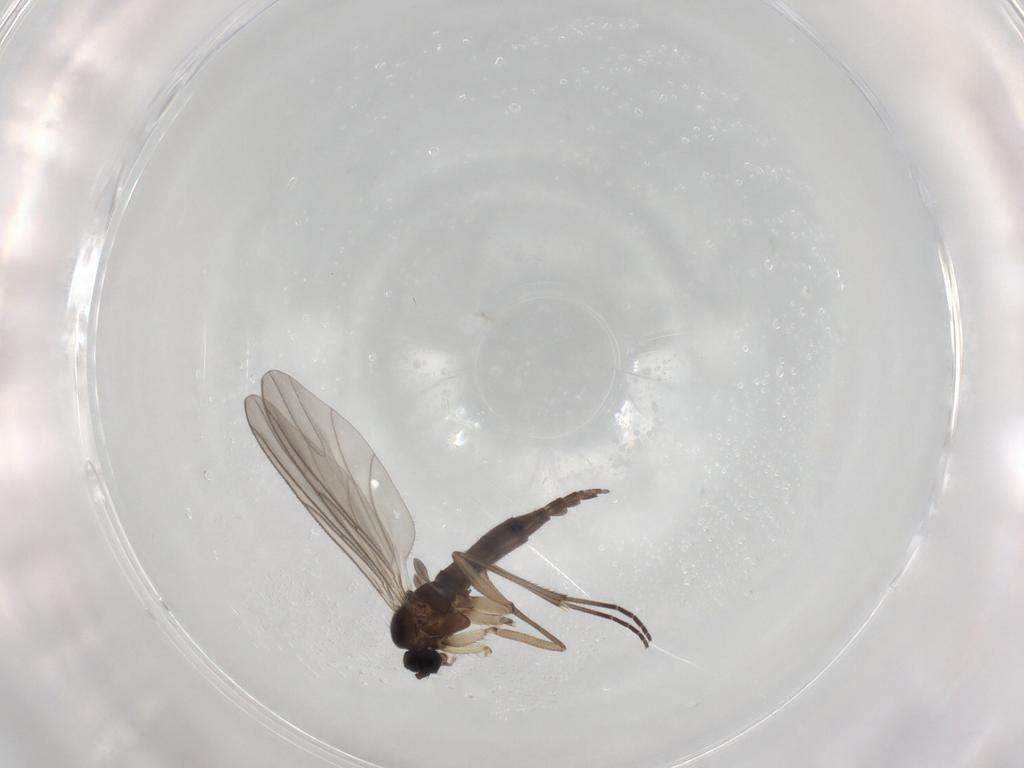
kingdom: Animalia
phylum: Arthropoda
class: Insecta
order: Diptera
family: Sciaridae
